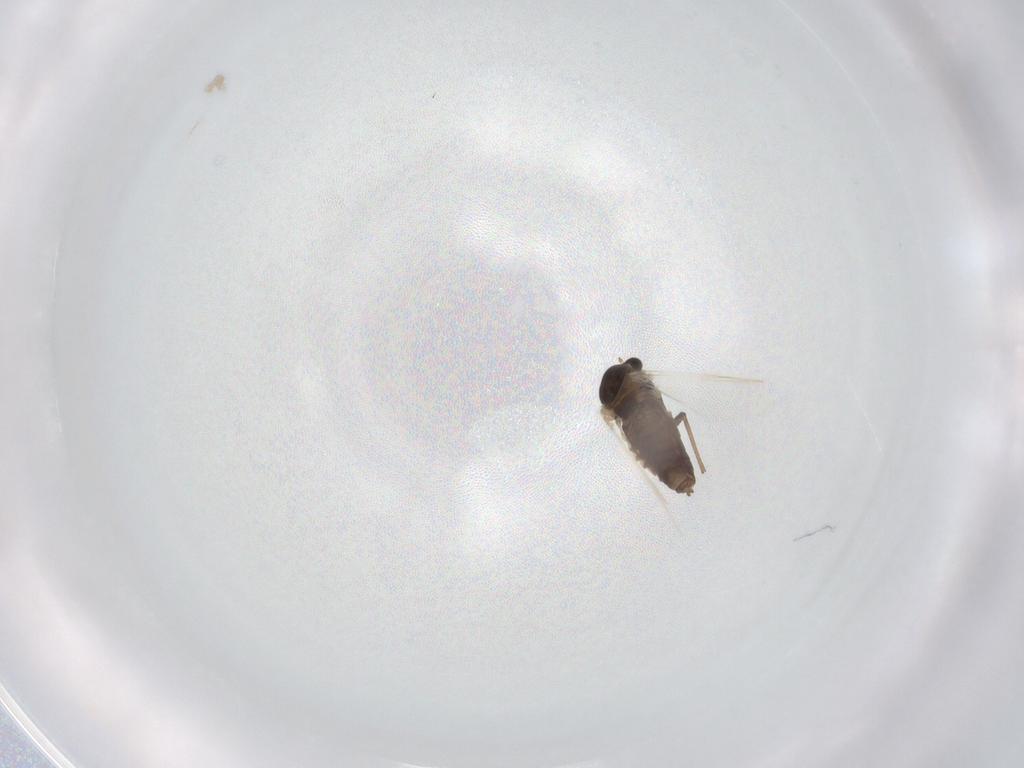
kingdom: Animalia
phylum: Arthropoda
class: Insecta
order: Diptera
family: Chironomidae
